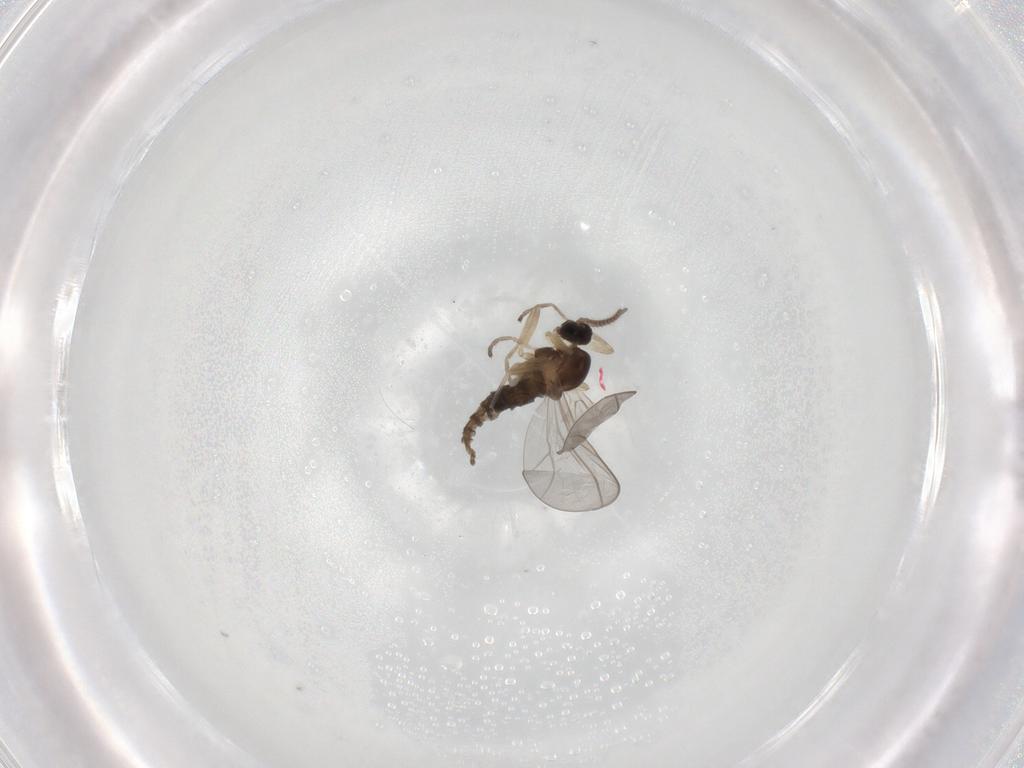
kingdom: Animalia
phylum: Arthropoda
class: Insecta
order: Diptera
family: Cecidomyiidae
